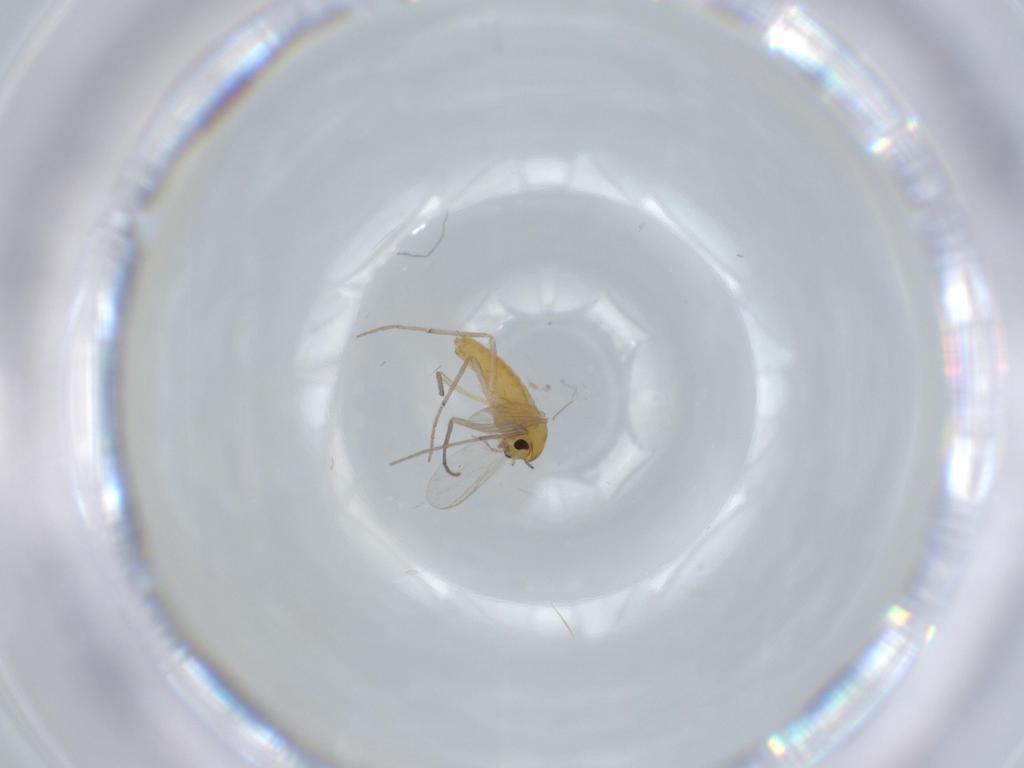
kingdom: Animalia
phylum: Arthropoda
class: Insecta
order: Diptera
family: Chironomidae
